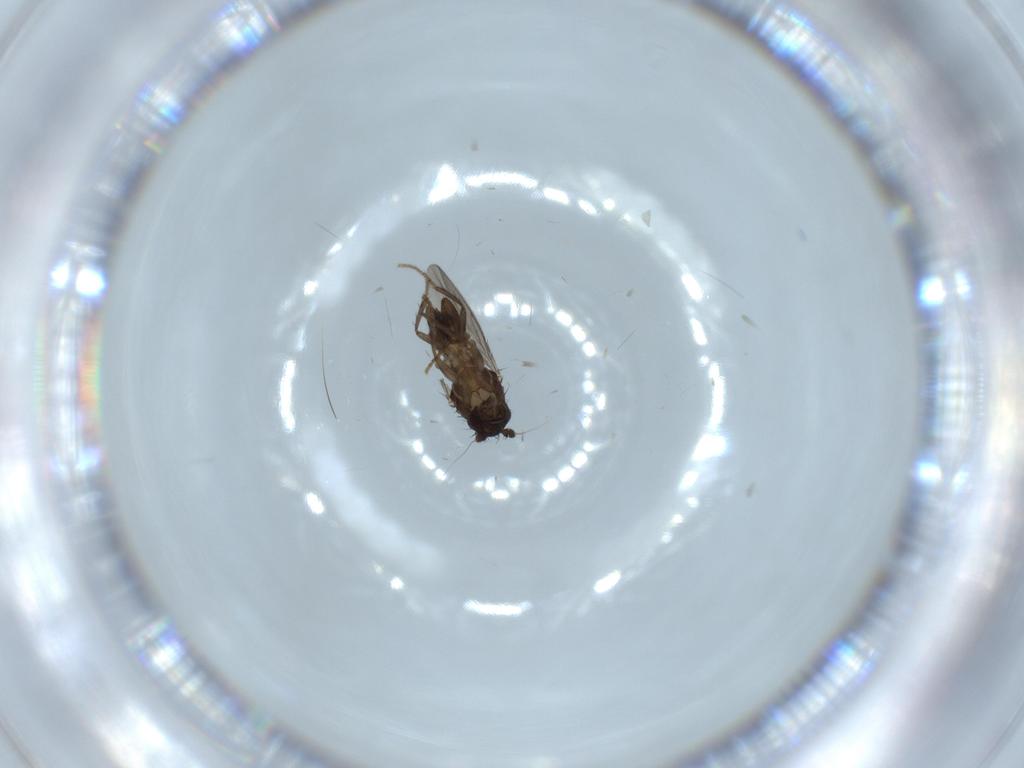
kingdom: Animalia
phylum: Arthropoda
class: Insecta
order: Diptera
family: Sphaeroceridae
